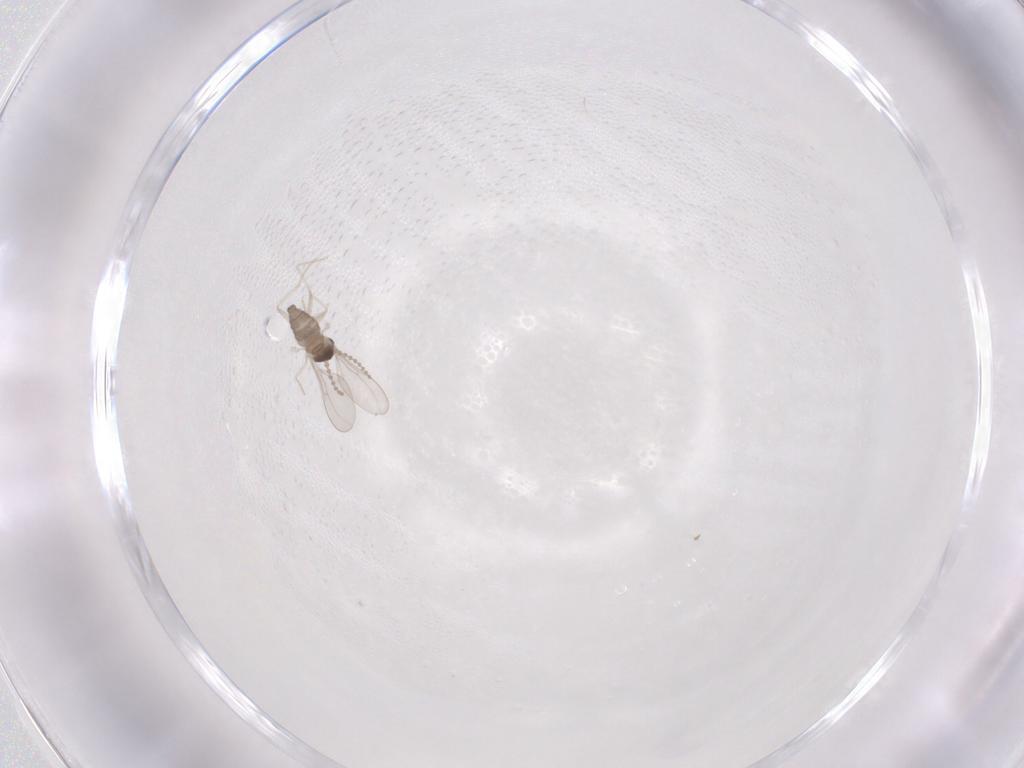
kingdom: Animalia
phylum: Arthropoda
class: Insecta
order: Diptera
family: Cecidomyiidae
